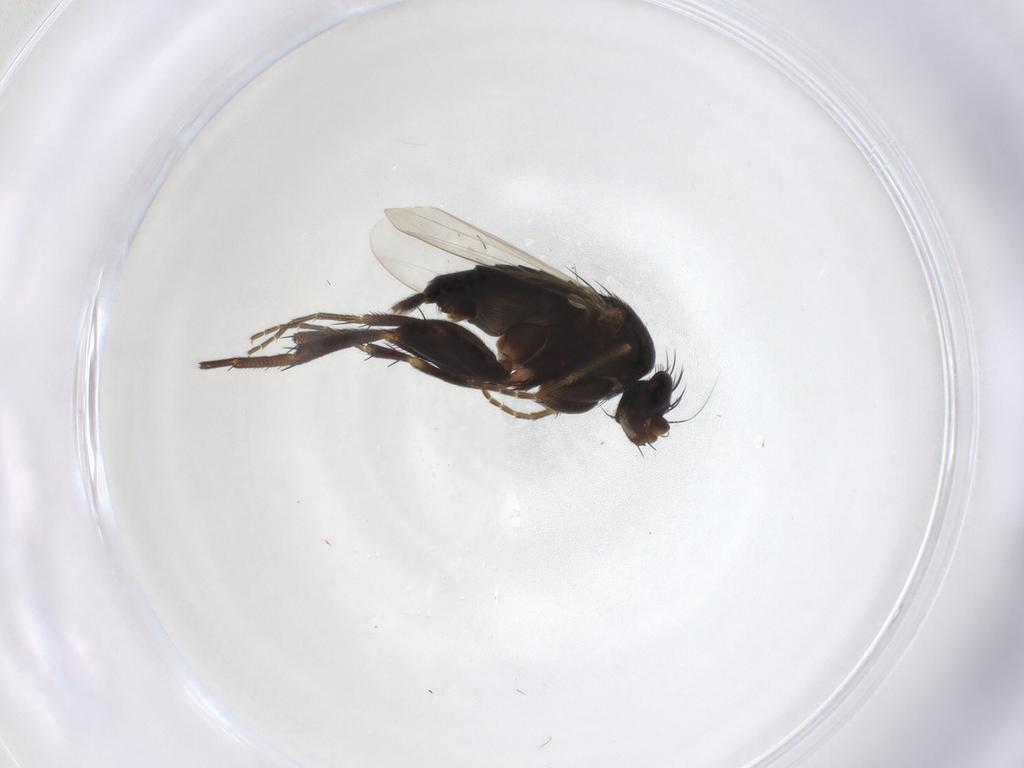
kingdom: Animalia
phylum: Arthropoda
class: Insecta
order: Diptera
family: Phoridae
